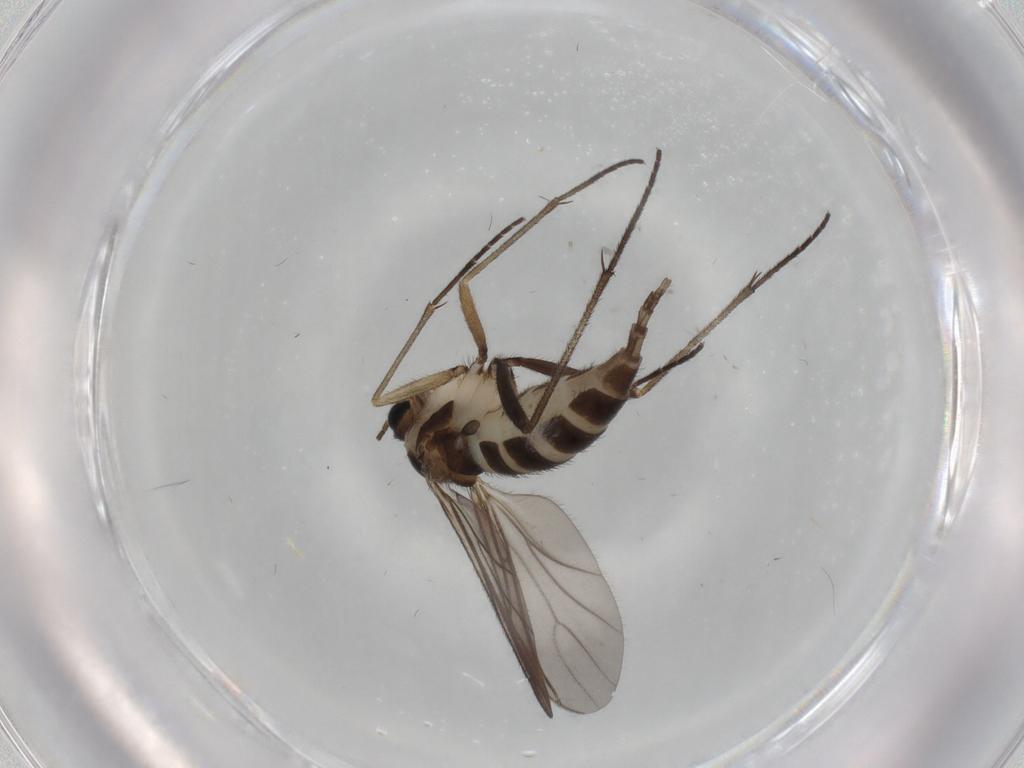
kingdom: Animalia
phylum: Arthropoda
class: Insecta
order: Diptera
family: Sciaridae
